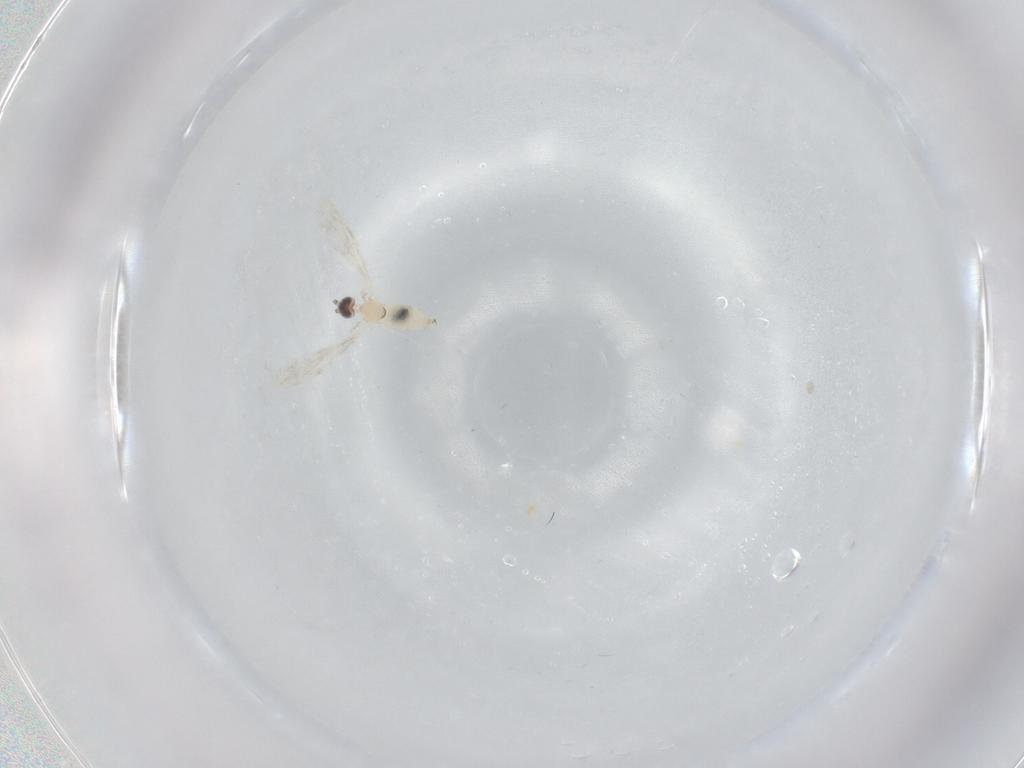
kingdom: Animalia
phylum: Arthropoda
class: Insecta
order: Diptera
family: Cecidomyiidae
